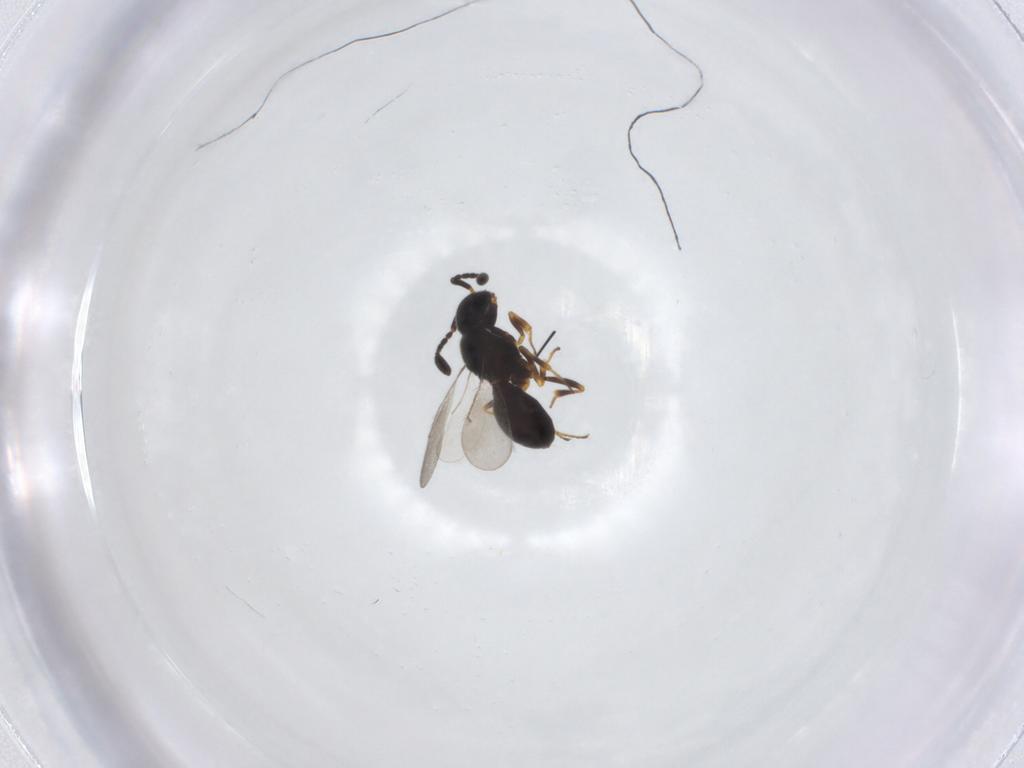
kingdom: Animalia
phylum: Arthropoda
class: Insecta
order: Hymenoptera
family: Scelionidae
